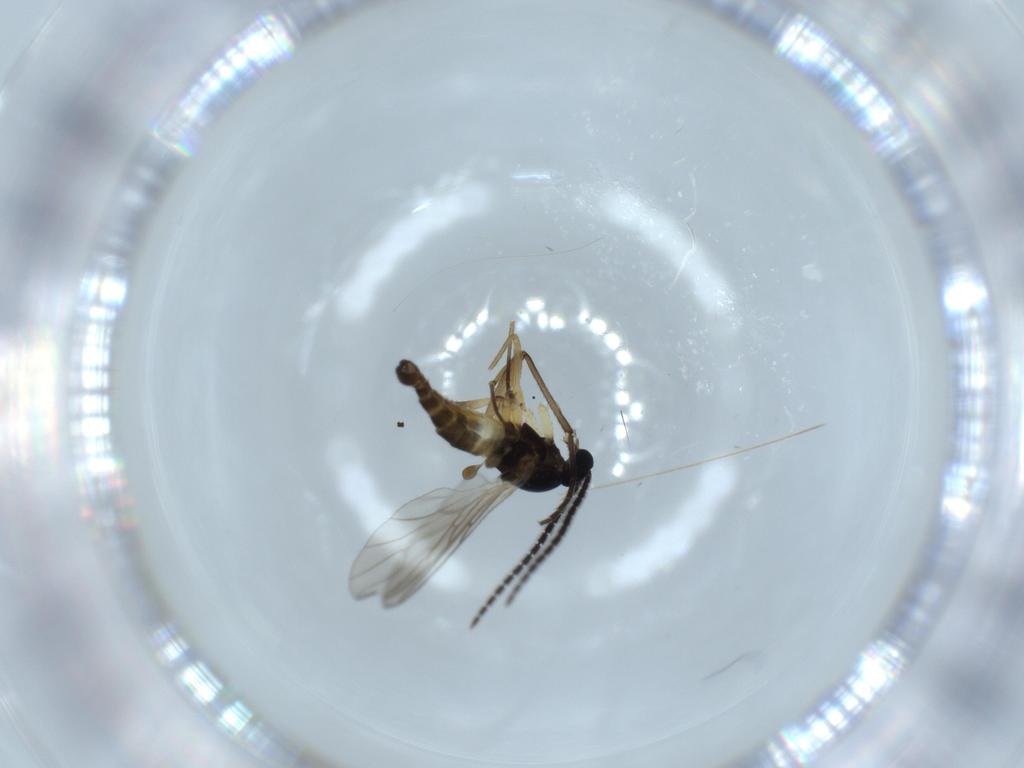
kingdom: Animalia
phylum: Arthropoda
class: Insecta
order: Diptera
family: Sciaridae
